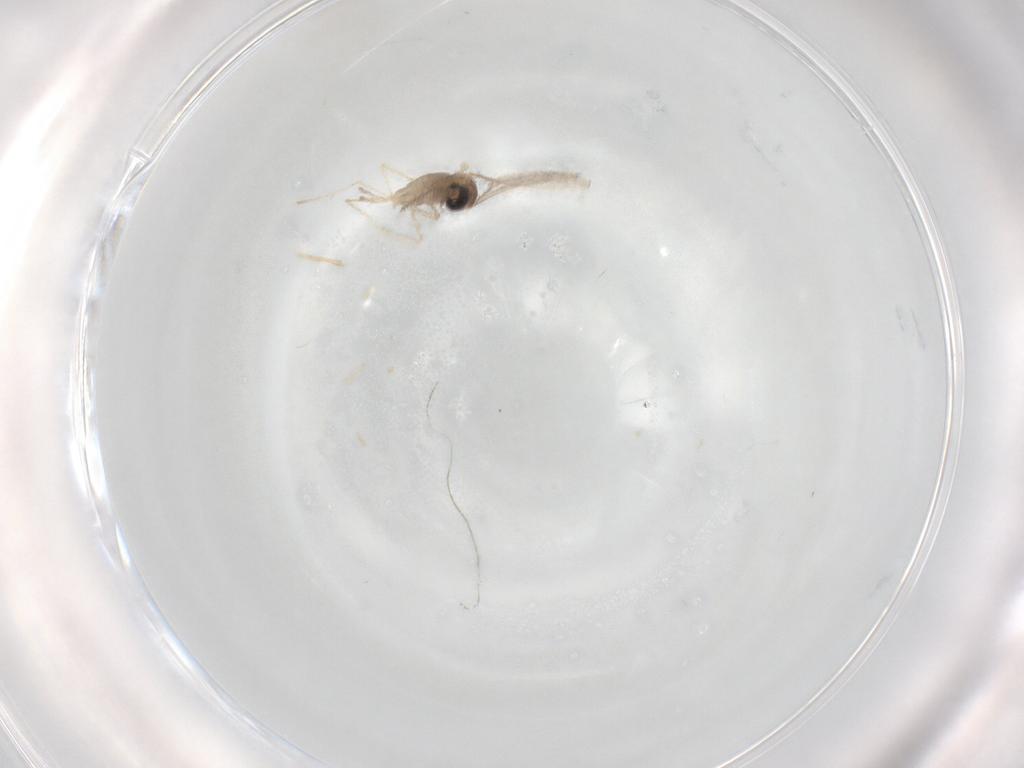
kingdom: Animalia
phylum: Arthropoda
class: Insecta
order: Diptera
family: Cecidomyiidae
